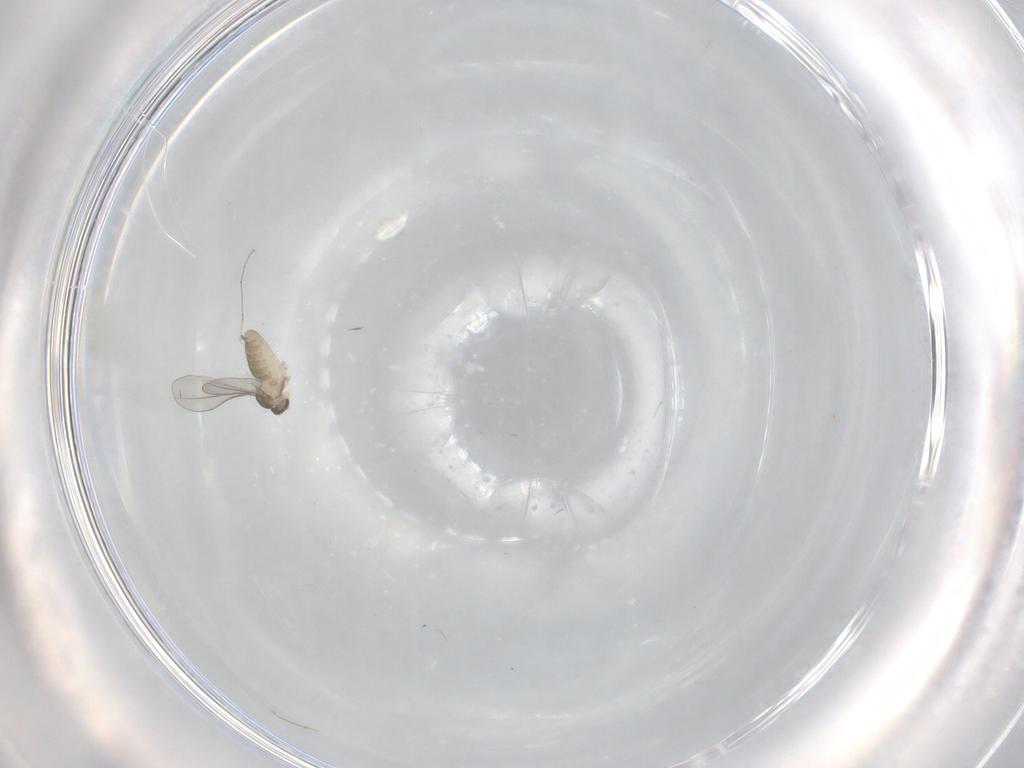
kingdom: Animalia
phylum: Arthropoda
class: Insecta
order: Diptera
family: Cecidomyiidae
